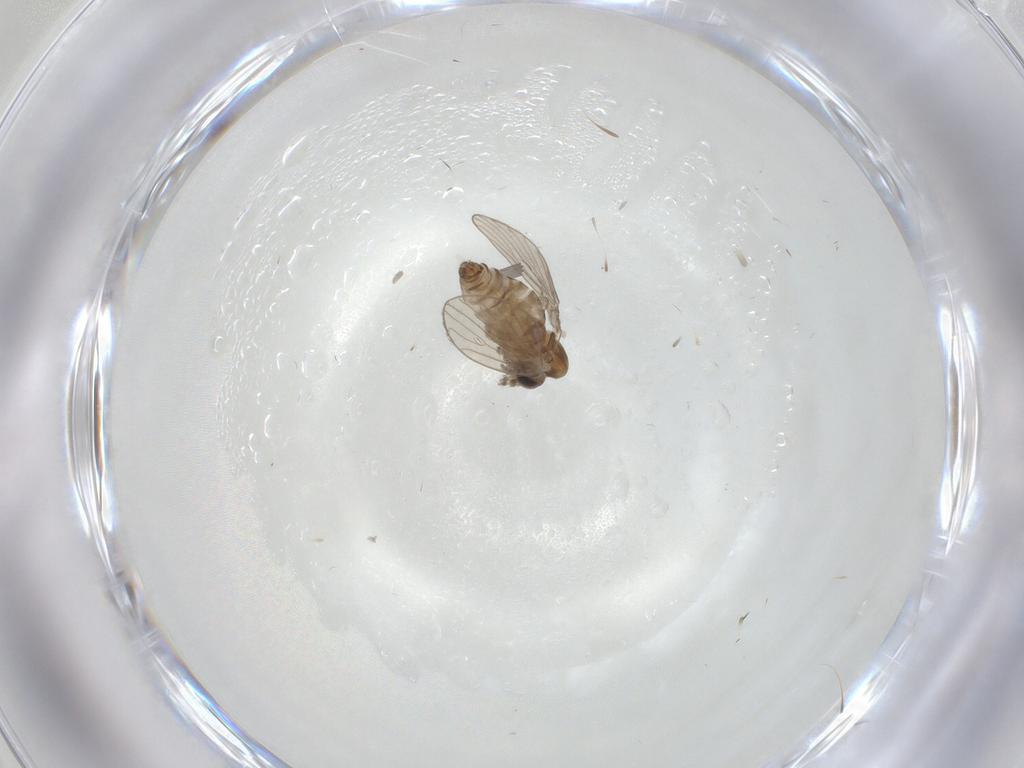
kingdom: Animalia
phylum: Arthropoda
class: Insecta
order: Diptera
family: Psychodidae
